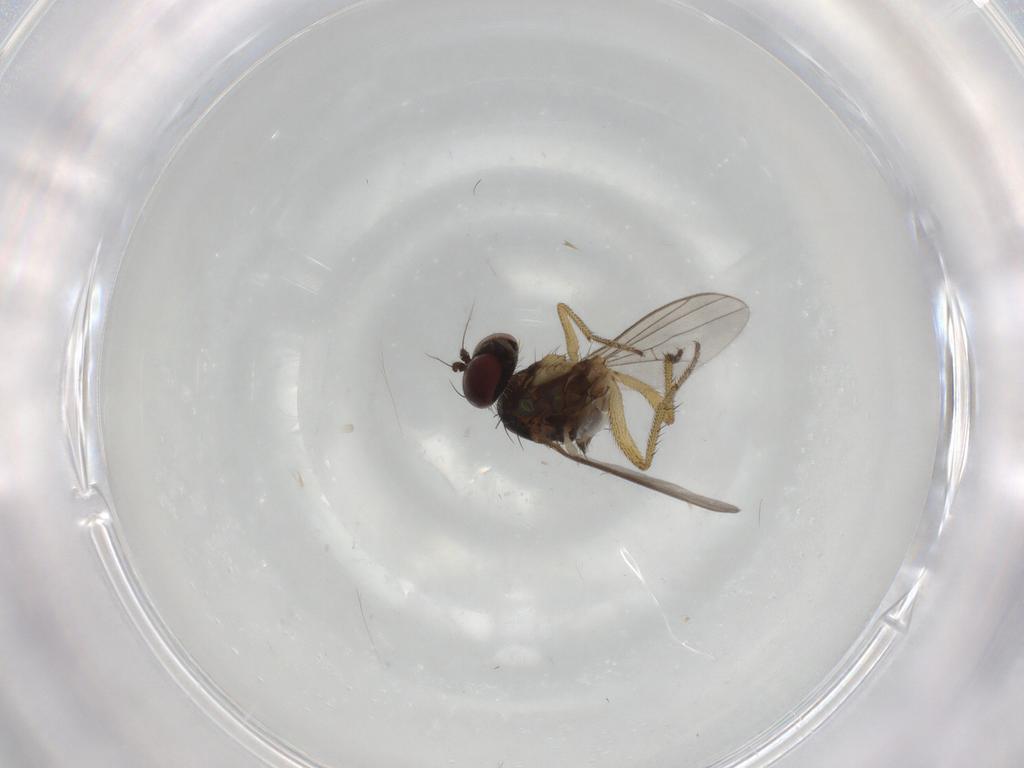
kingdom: Animalia
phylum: Arthropoda
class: Insecta
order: Diptera
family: Dolichopodidae
